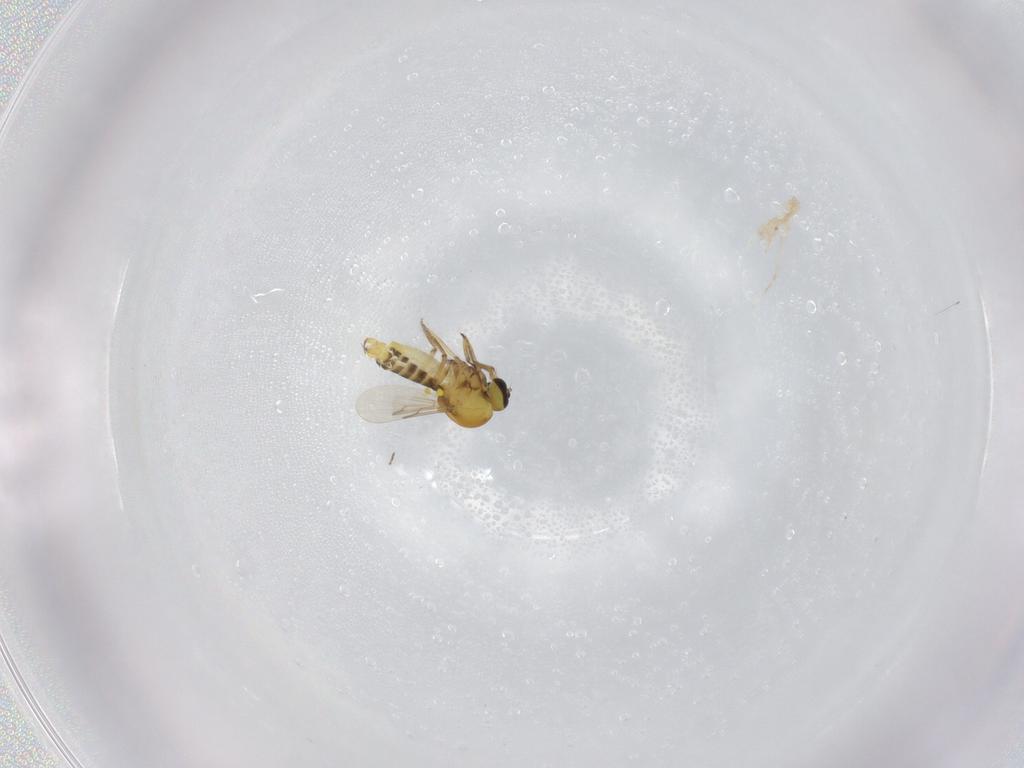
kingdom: Animalia
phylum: Arthropoda
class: Insecta
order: Diptera
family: Ceratopogonidae
